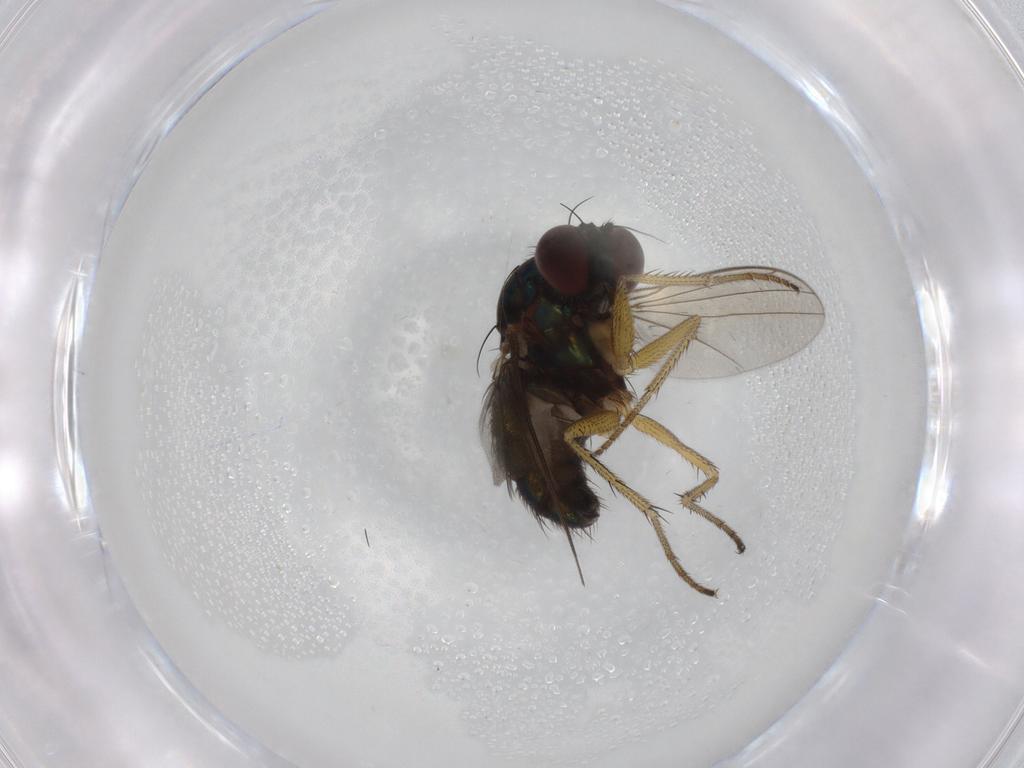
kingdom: Animalia
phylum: Arthropoda
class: Insecta
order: Diptera
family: Dolichopodidae
